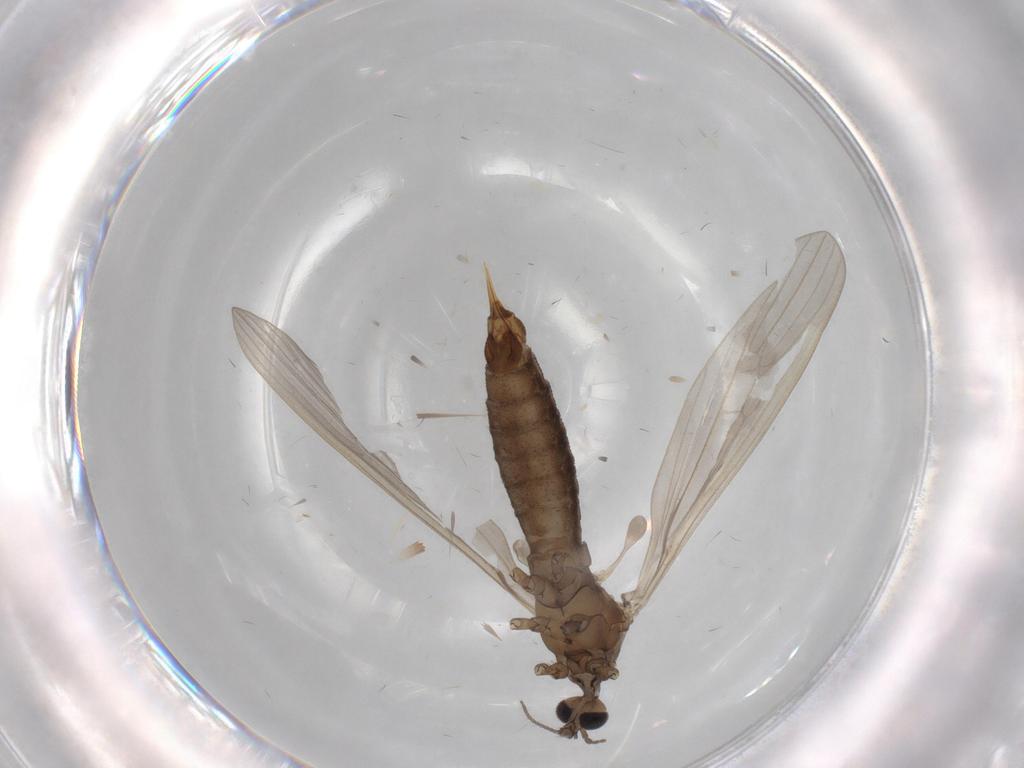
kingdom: Animalia
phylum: Arthropoda
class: Insecta
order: Diptera
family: Limoniidae
